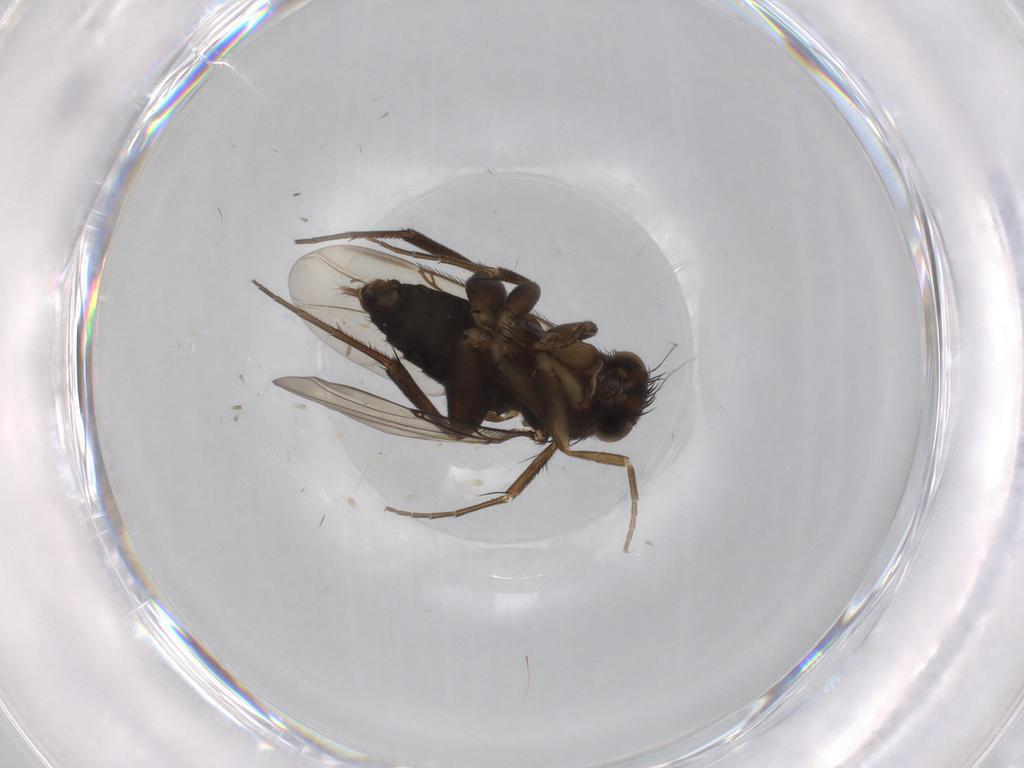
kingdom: Animalia
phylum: Arthropoda
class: Insecta
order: Diptera
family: Phoridae
